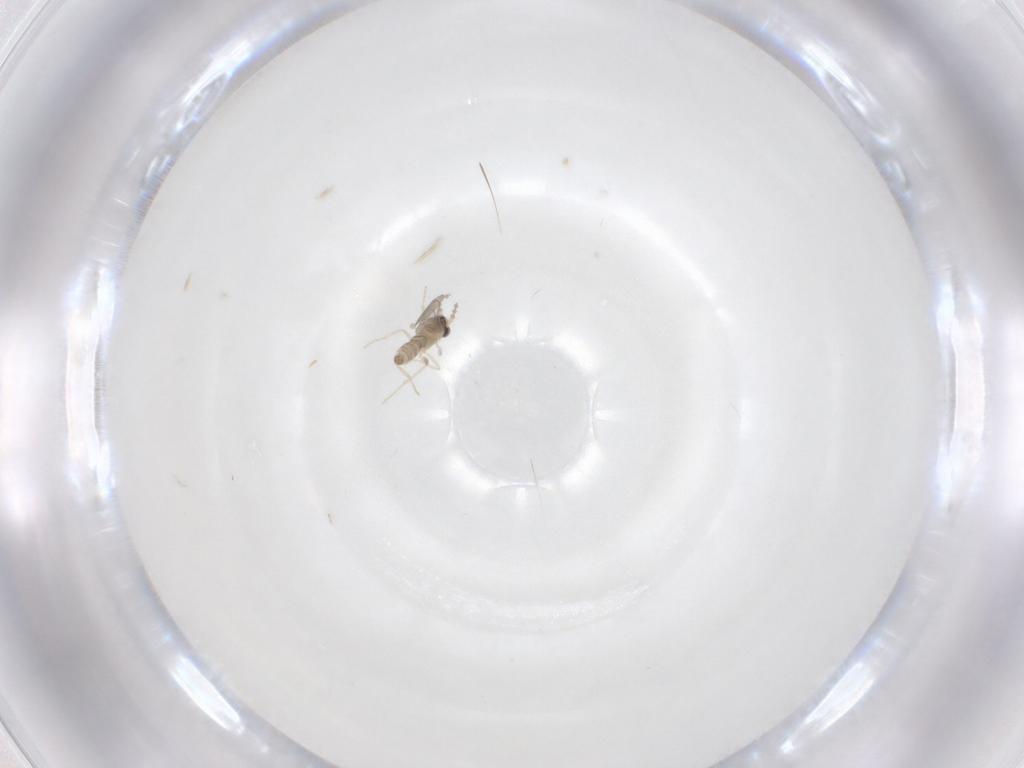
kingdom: Animalia
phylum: Arthropoda
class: Insecta
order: Diptera
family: Cecidomyiidae
